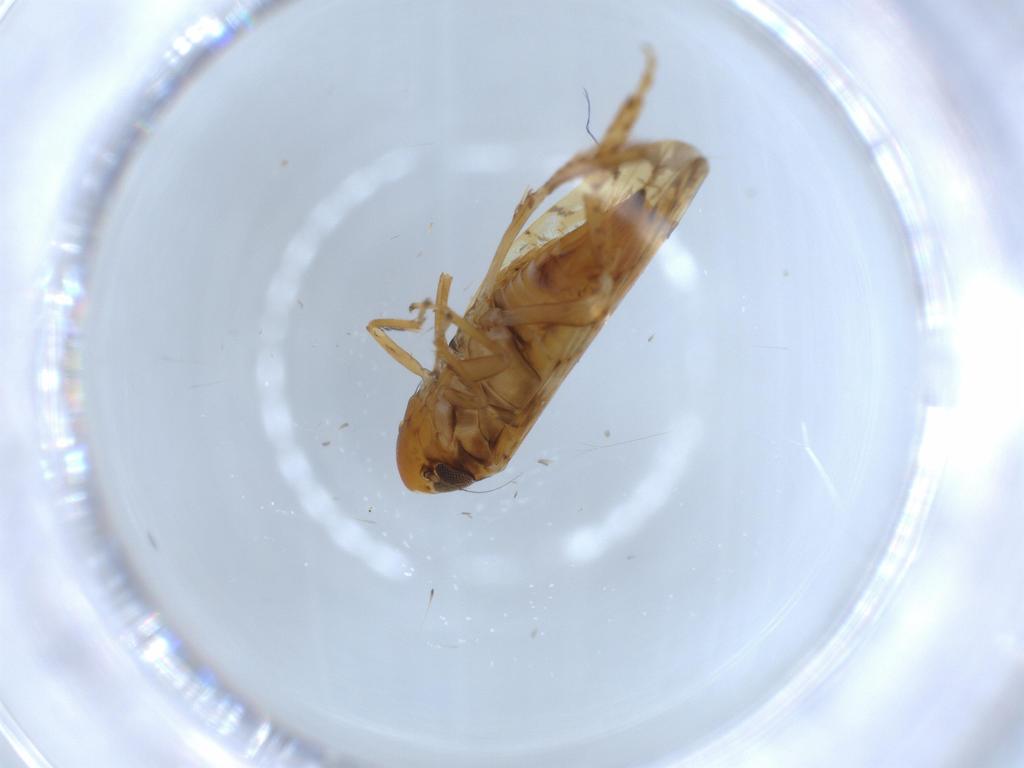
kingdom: Animalia
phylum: Arthropoda
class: Insecta
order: Hemiptera
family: Cicadellidae
